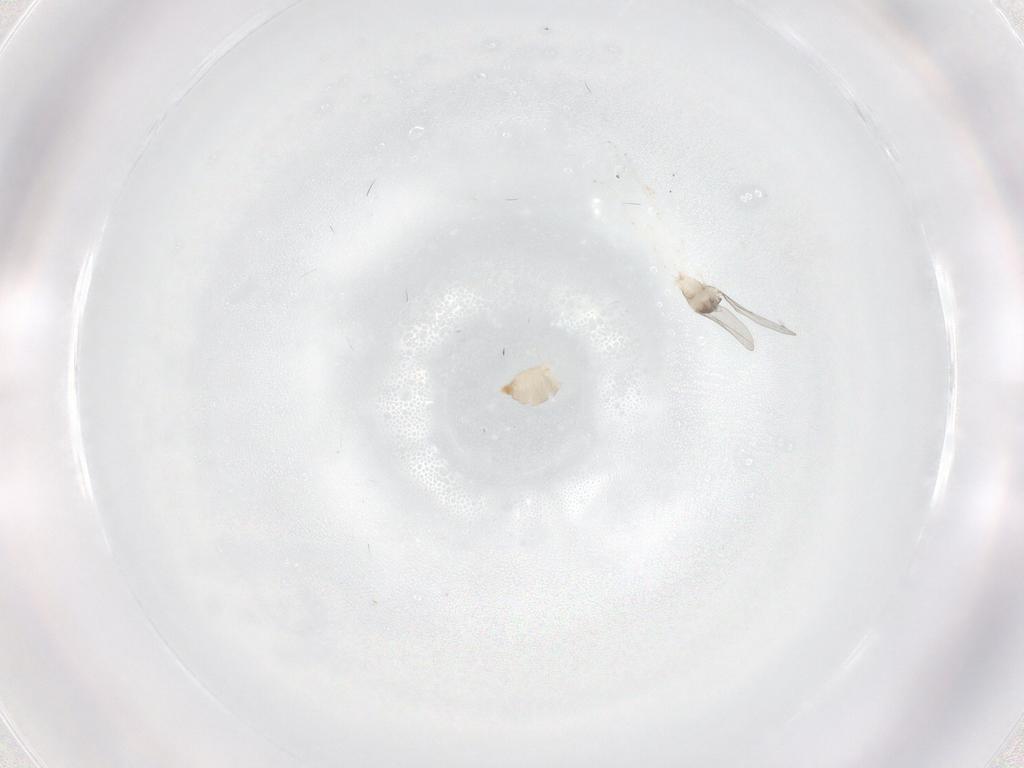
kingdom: Animalia
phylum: Arthropoda
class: Insecta
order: Diptera
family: Cecidomyiidae
